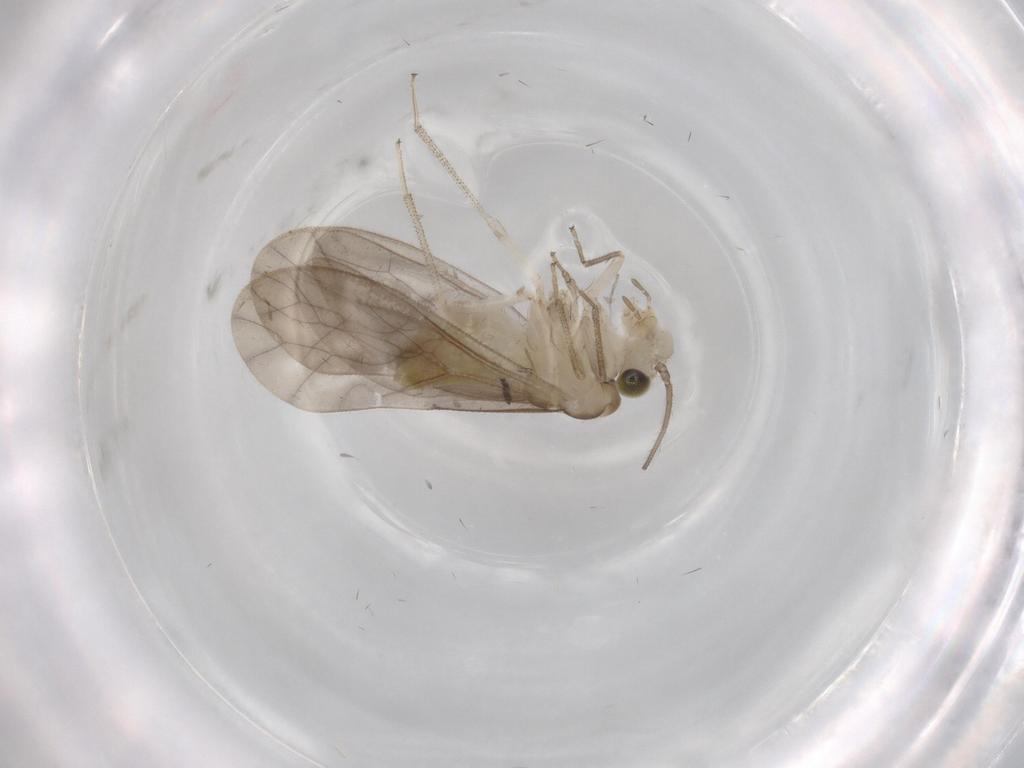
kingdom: Animalia
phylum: Arthropoda
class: Insecta
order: Psocodea
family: Caeciliusidae
